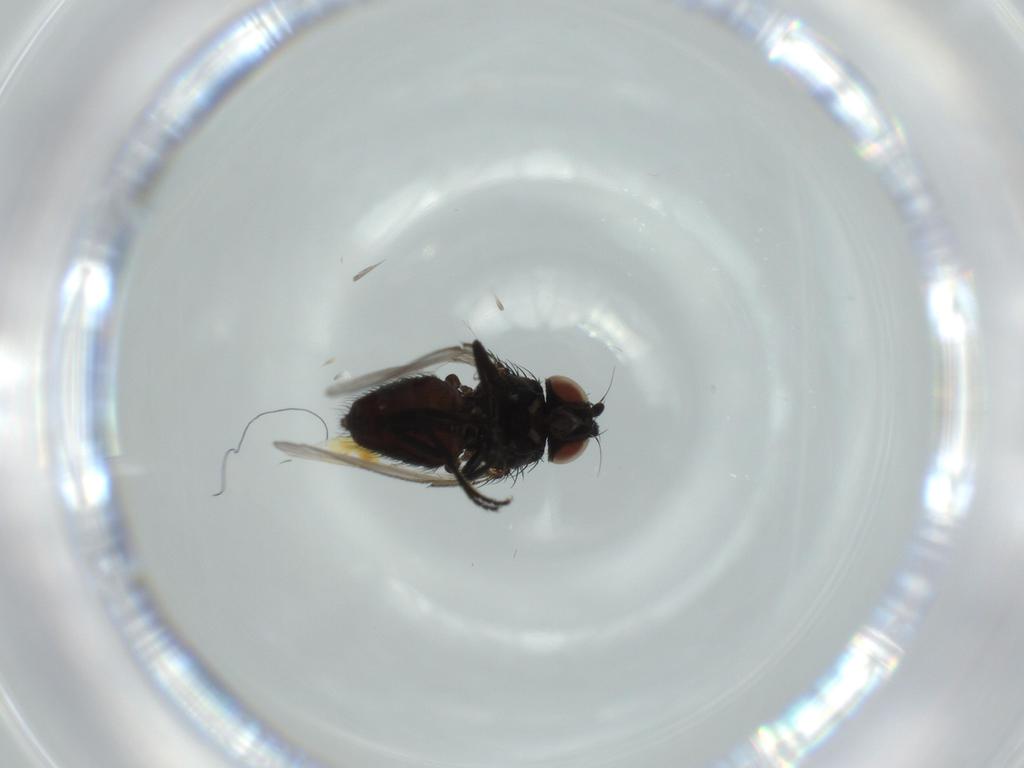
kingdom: Animalia
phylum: Arthropoda
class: Insecta
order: Diptera
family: Milichiidae
